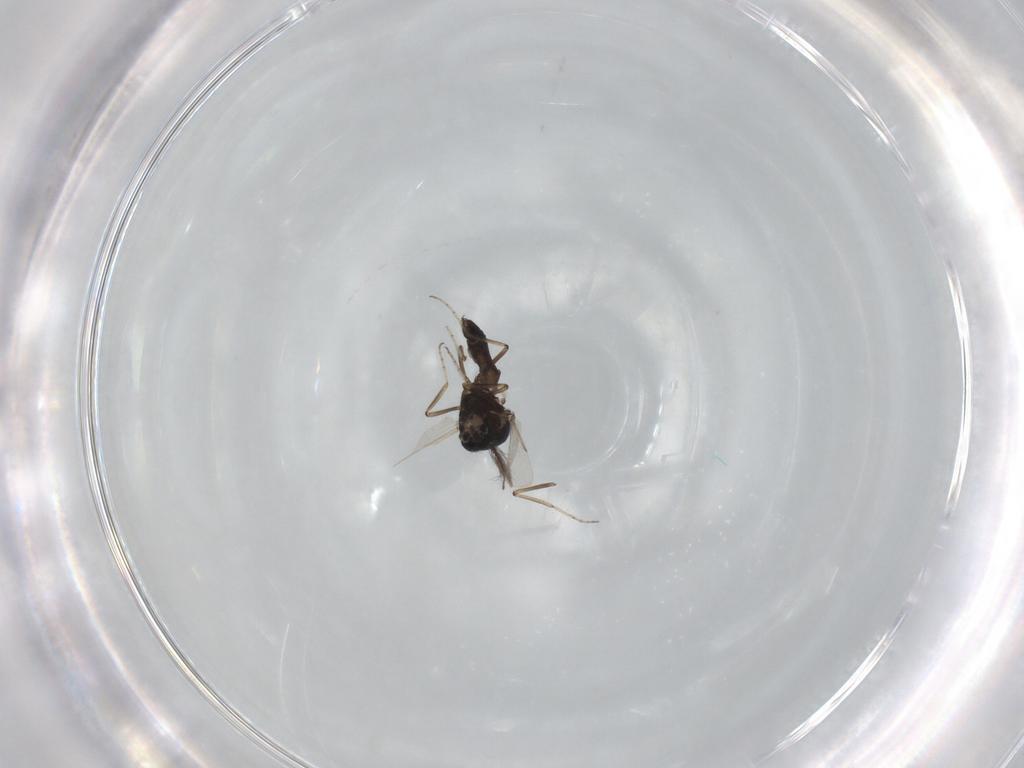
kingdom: Animalia
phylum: Arthropoda
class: Insecta
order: Diptera
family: Ceratopogonidae
